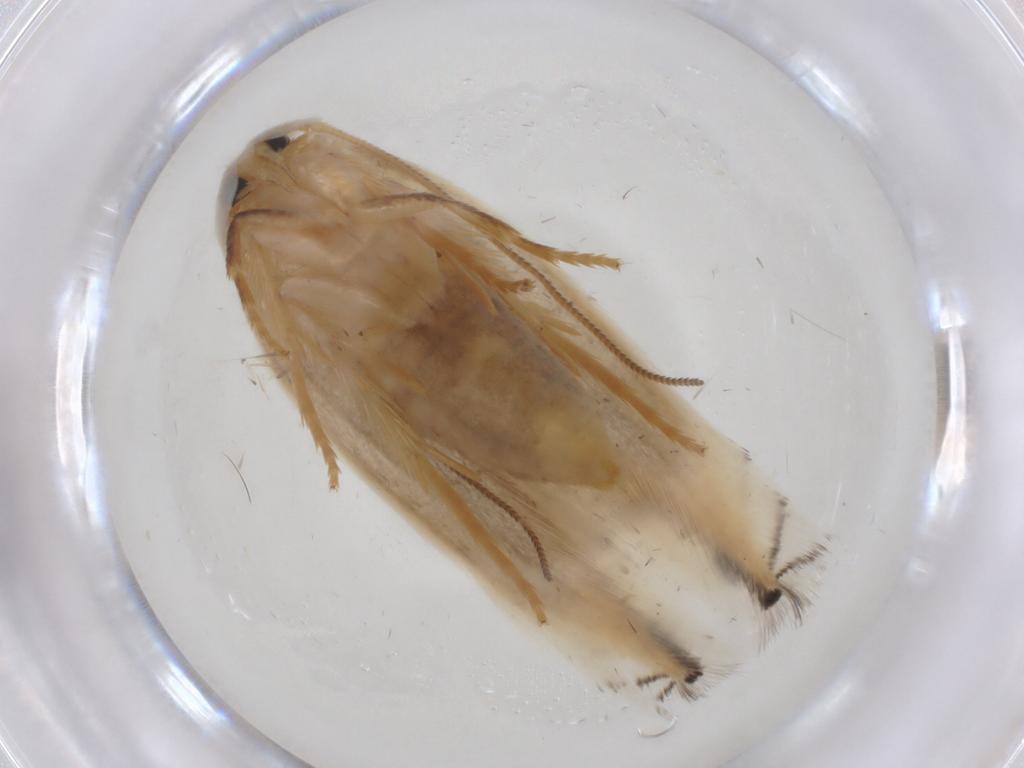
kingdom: Animalia
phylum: Arthropoda
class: Insecta
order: Lepidoptera
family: Opostegidae
